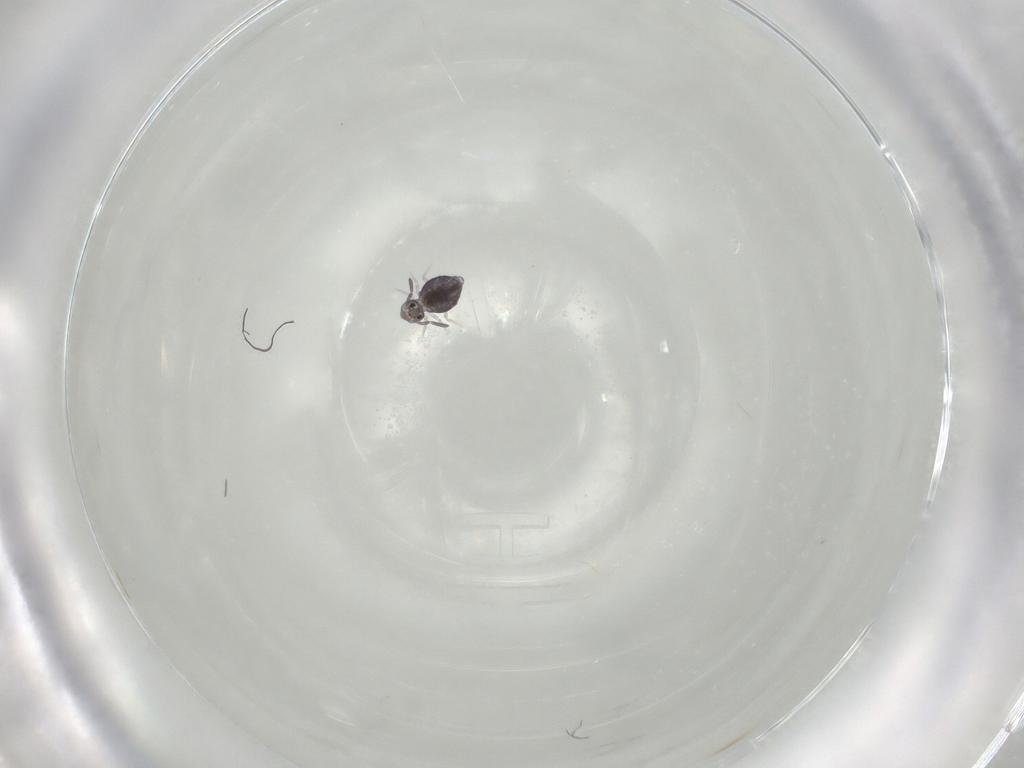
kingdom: Animalia
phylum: Arthropoda
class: Collembola
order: Symphypleona
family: Katiannidae
